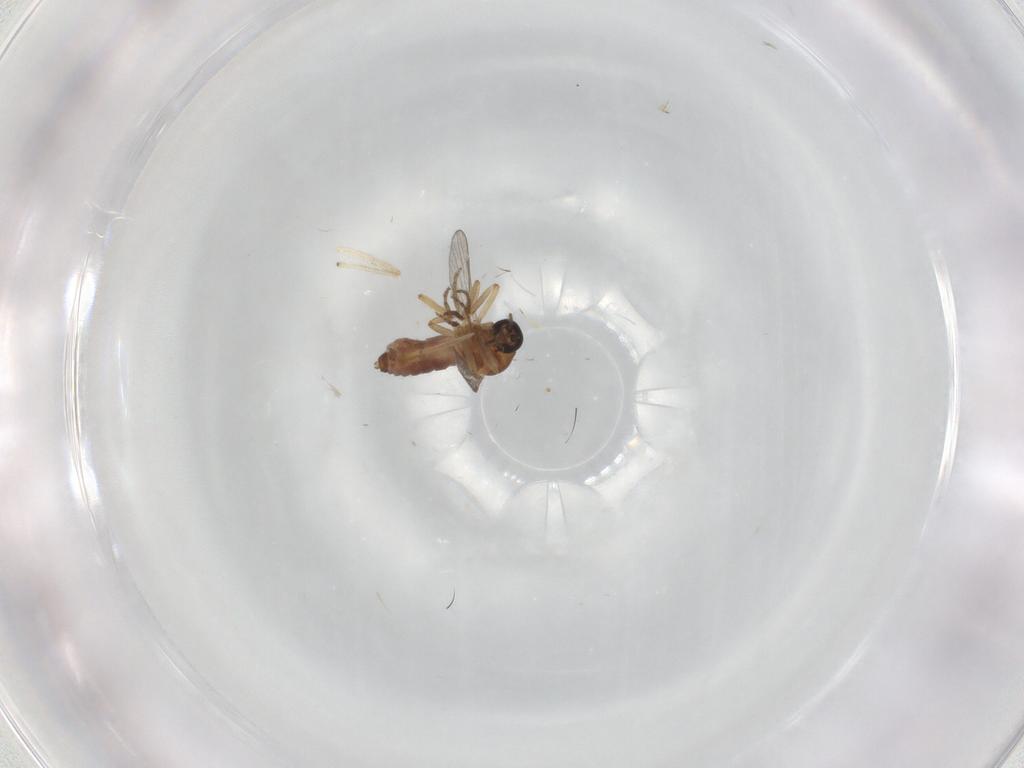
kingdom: Animalia
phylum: Arthropoda
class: Insecta
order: Diptera
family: Ceratopogonidae
